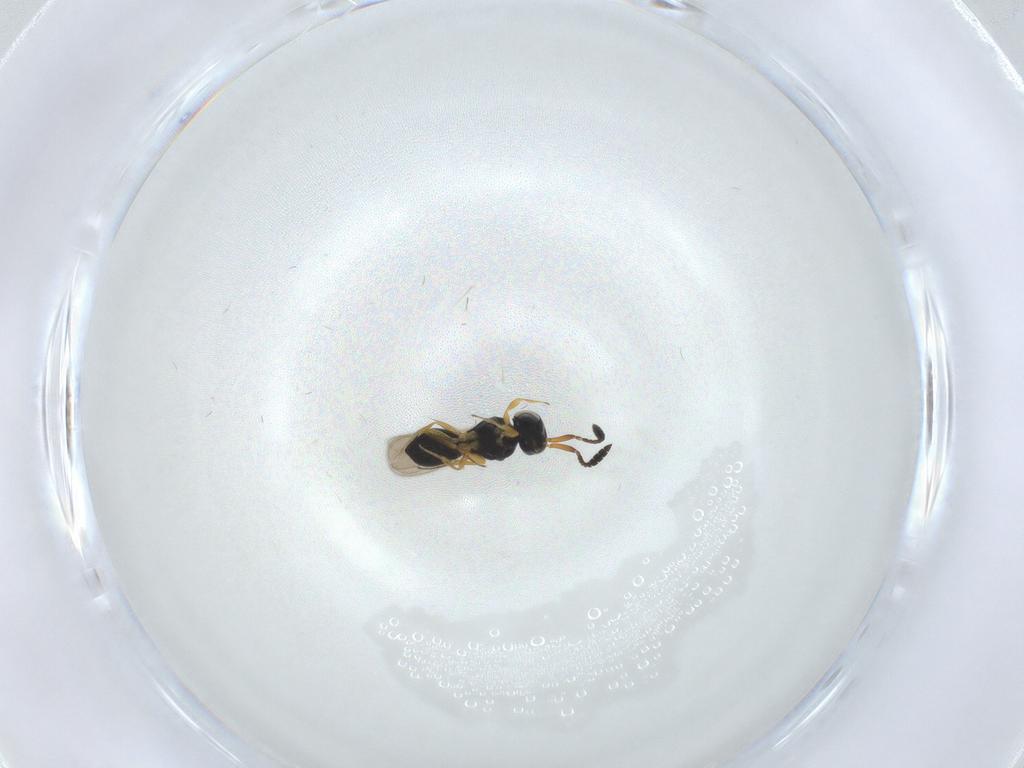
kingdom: Animalia
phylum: Arthropoda
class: Insecta
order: Hymenoptera
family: Scelionidae
